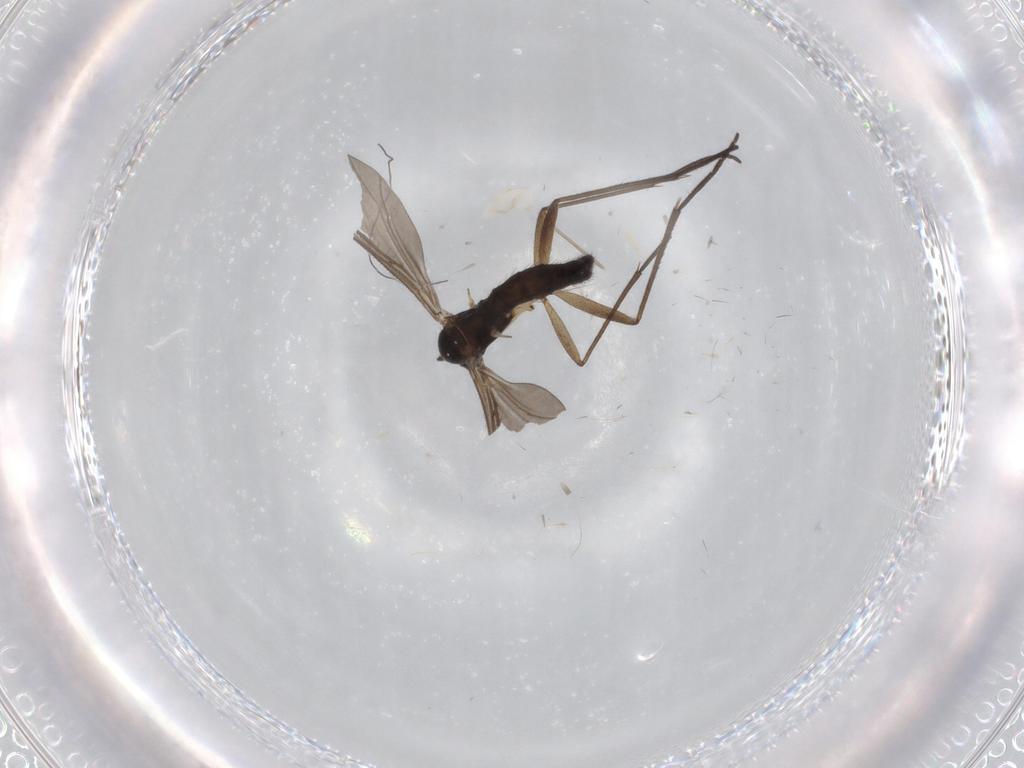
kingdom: Animalia
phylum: Arthropoda
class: Insecta
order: Diptera
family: Sciaridae
